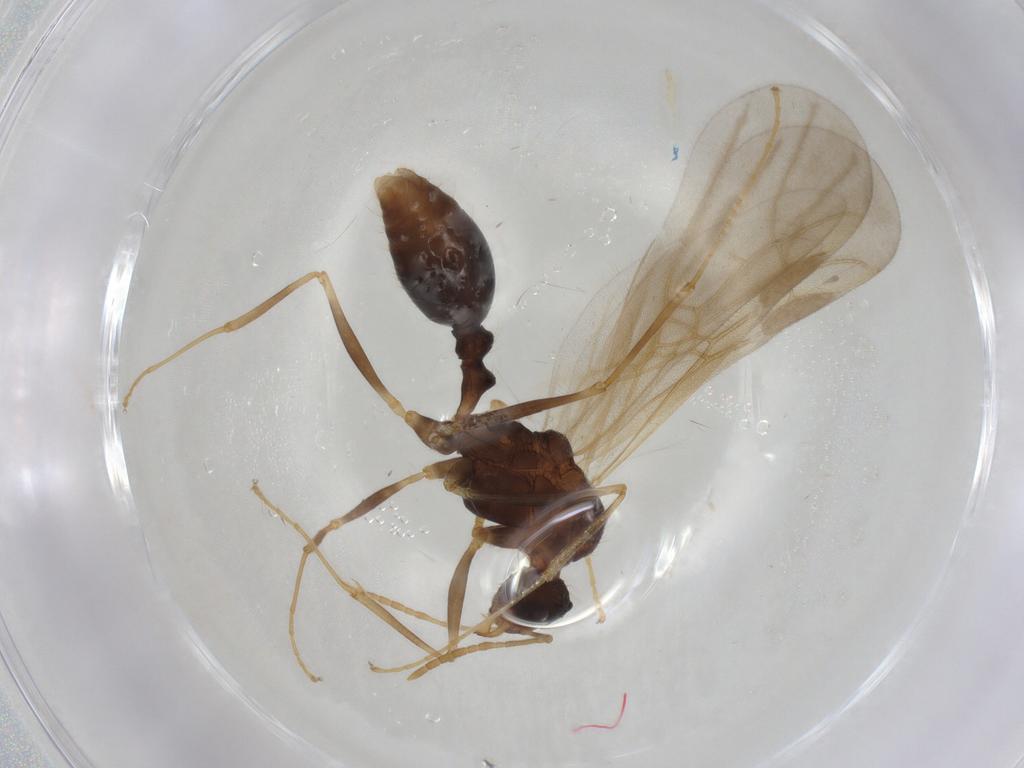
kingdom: Animalia
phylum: Arthropoda
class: Insecta
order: Hymenoptera
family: Formicidae
